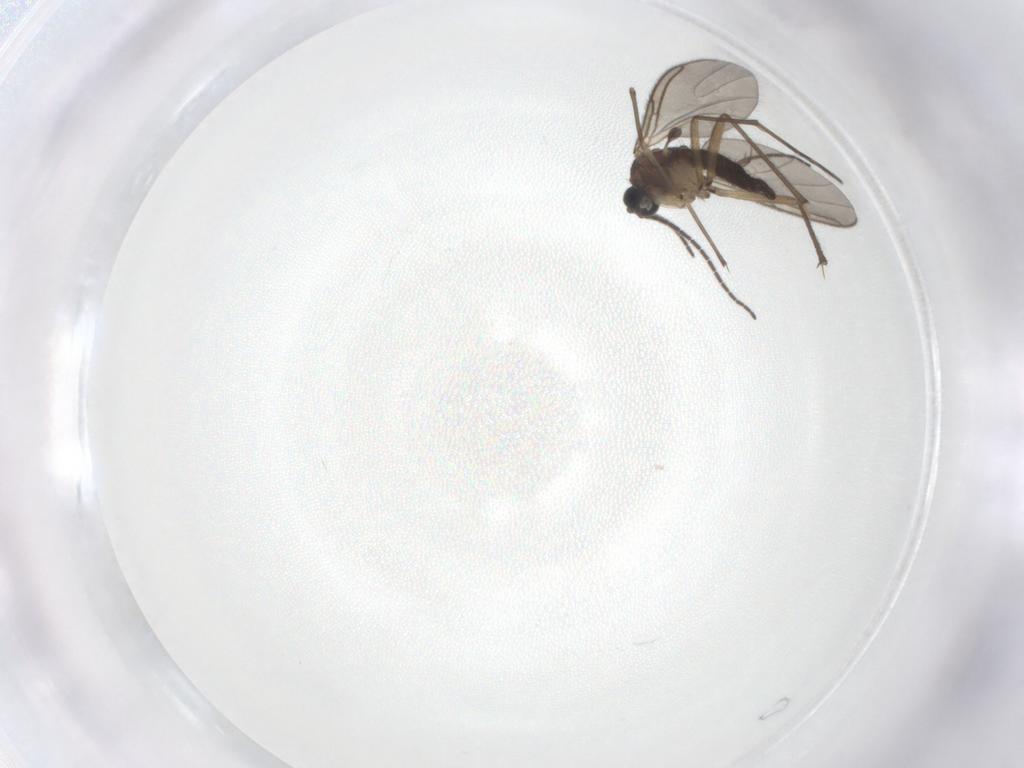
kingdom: Animalia
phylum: Arthropoda
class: Insecta
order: Diptera
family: Sciaridae
